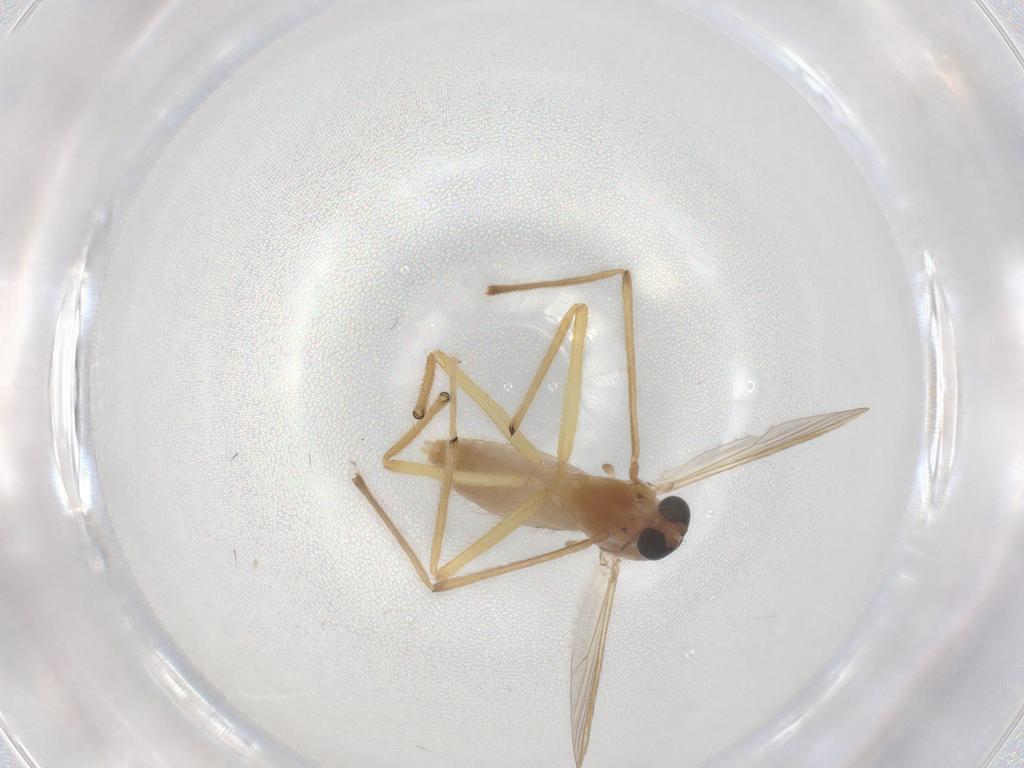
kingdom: Animalia
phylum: Arthropoda
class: Insecta
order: Diptera
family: Chironomidae
